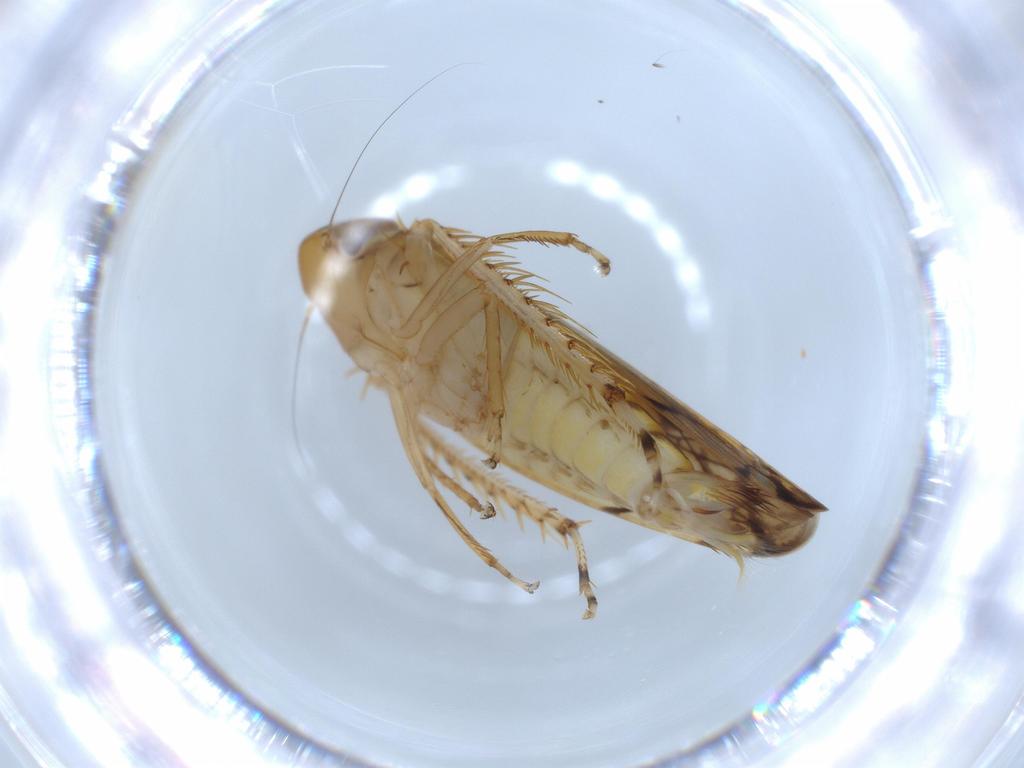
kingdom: Animalia
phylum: Arthropoda
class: Insecta
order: Hemiptera
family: Cicadellidae
